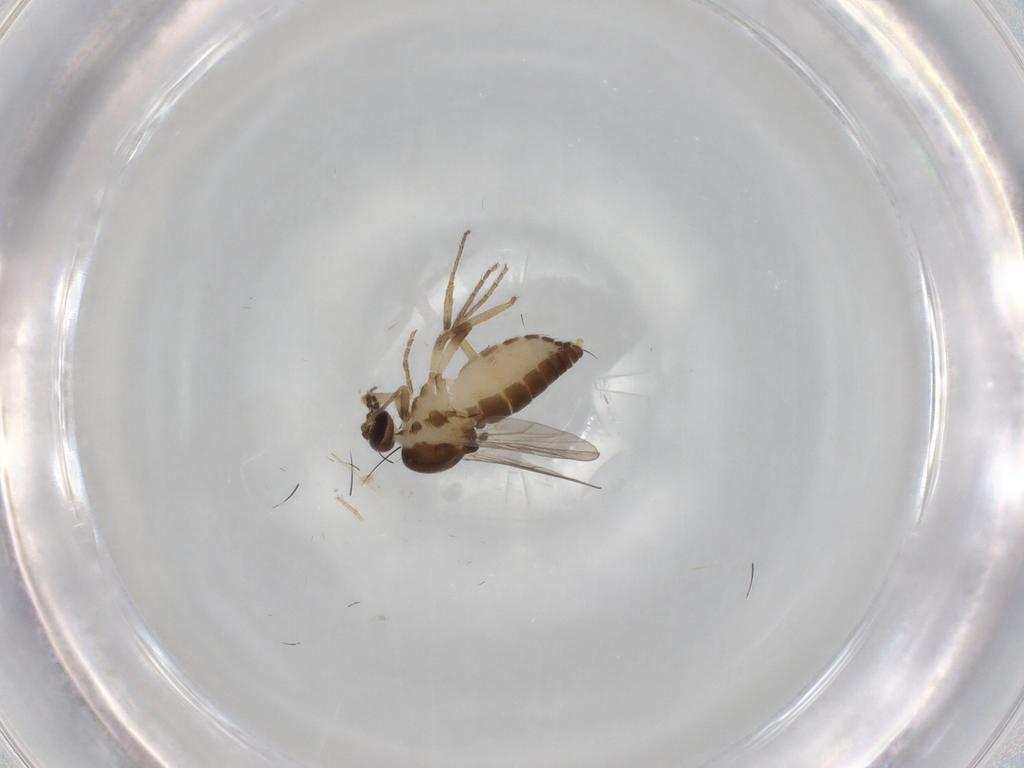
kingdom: Animalia
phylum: Arthropoda
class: Insecta
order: Diptera
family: Ceratopogonidae
